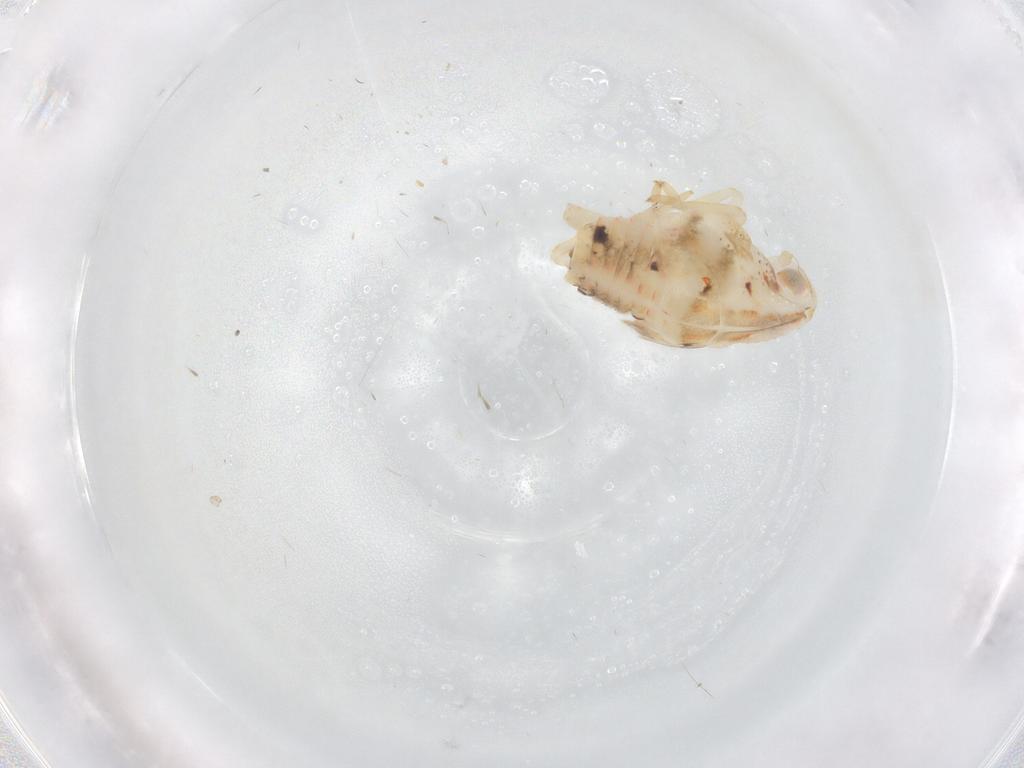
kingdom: Animalia
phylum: Arthropoda
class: Insecta
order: Hemiptera
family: Flatidae
